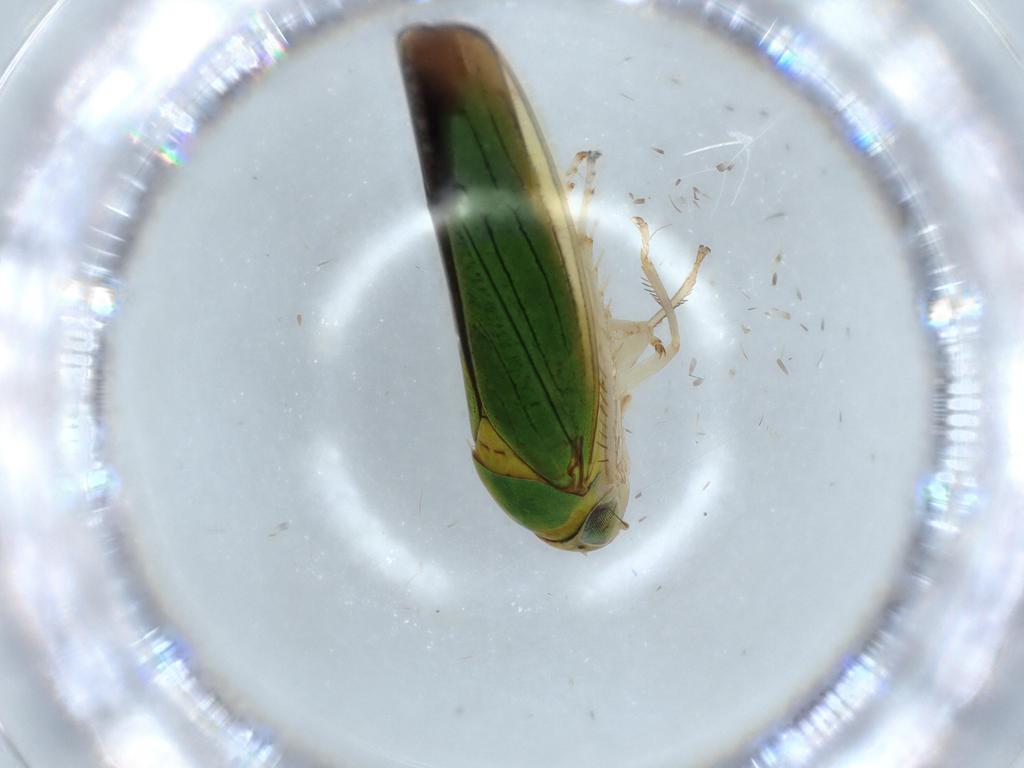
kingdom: Animalia
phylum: Arthropoda
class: Insecta
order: Hemiptera
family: Cicadellidae
